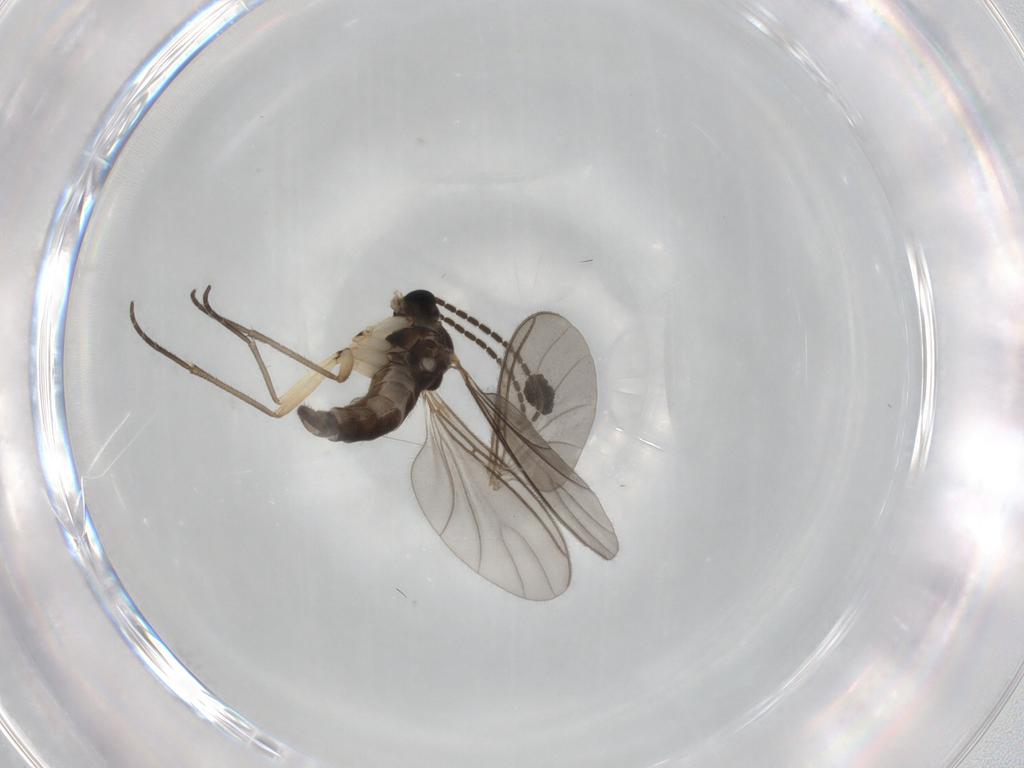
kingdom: Animalia
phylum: Arthropoda
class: Insecta
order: Diptera
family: Sciaridae
